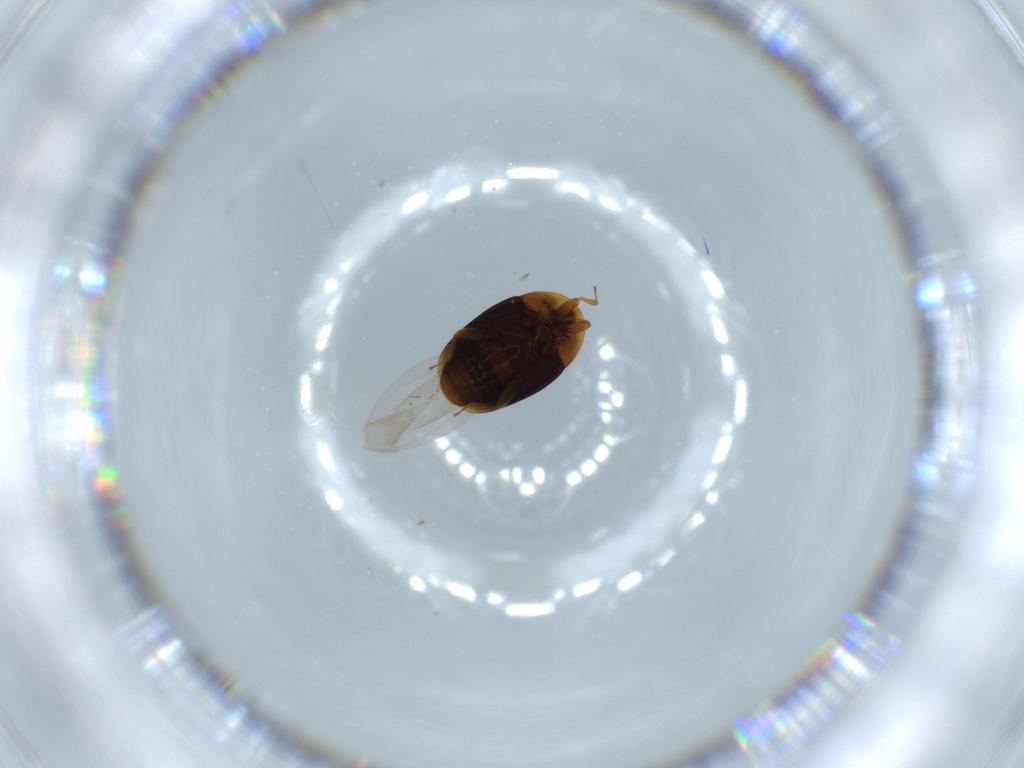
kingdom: Animalia
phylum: Arthropoda
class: Insecta
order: Coleoptera
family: Corylophidae
